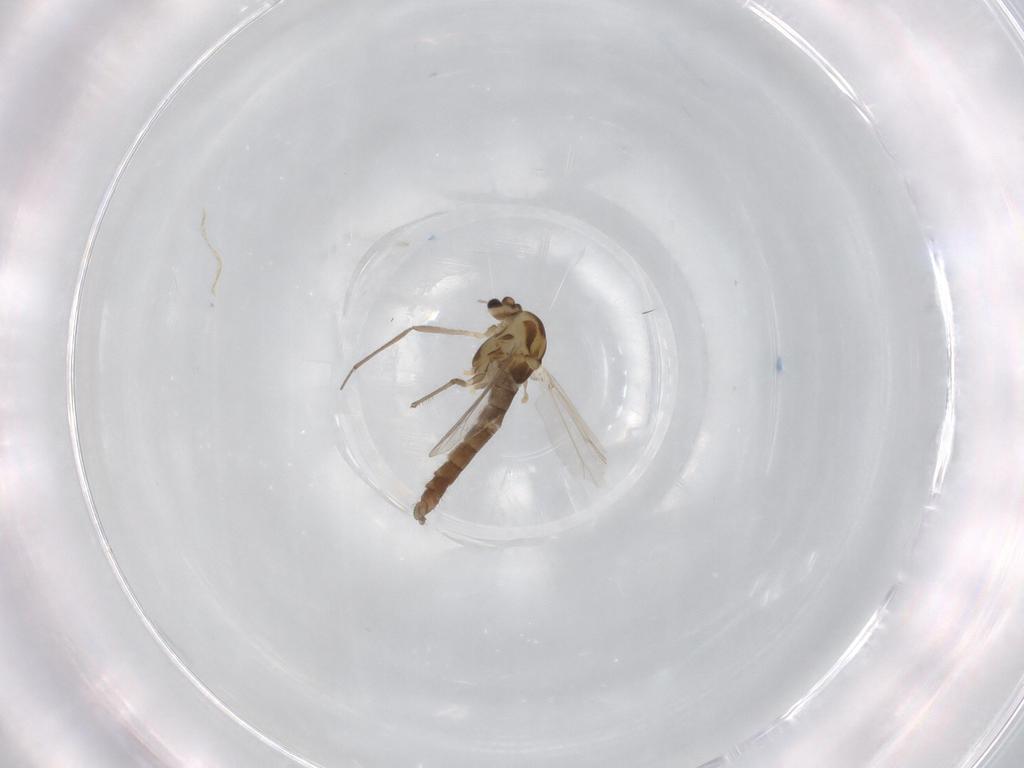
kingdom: Animalia
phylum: Arthropoda
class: Insecta
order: Diptera
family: Chironomidae
